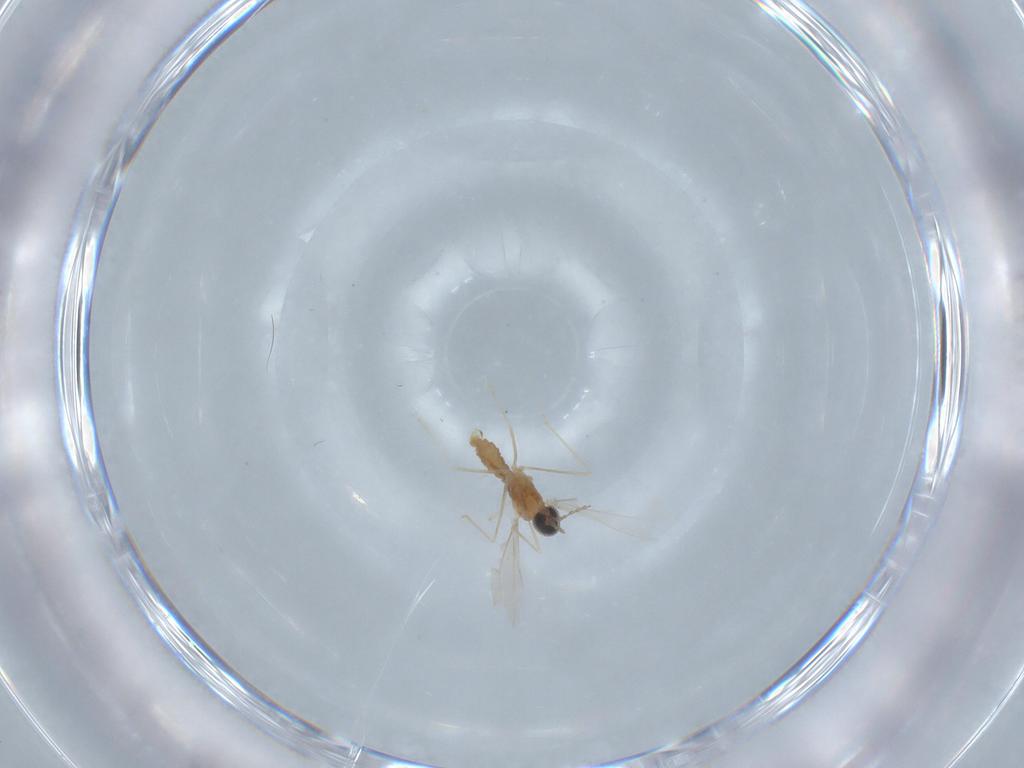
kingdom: Animalia
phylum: Arthropoda
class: Insecta
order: Diptera
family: Cecidomyiidae
